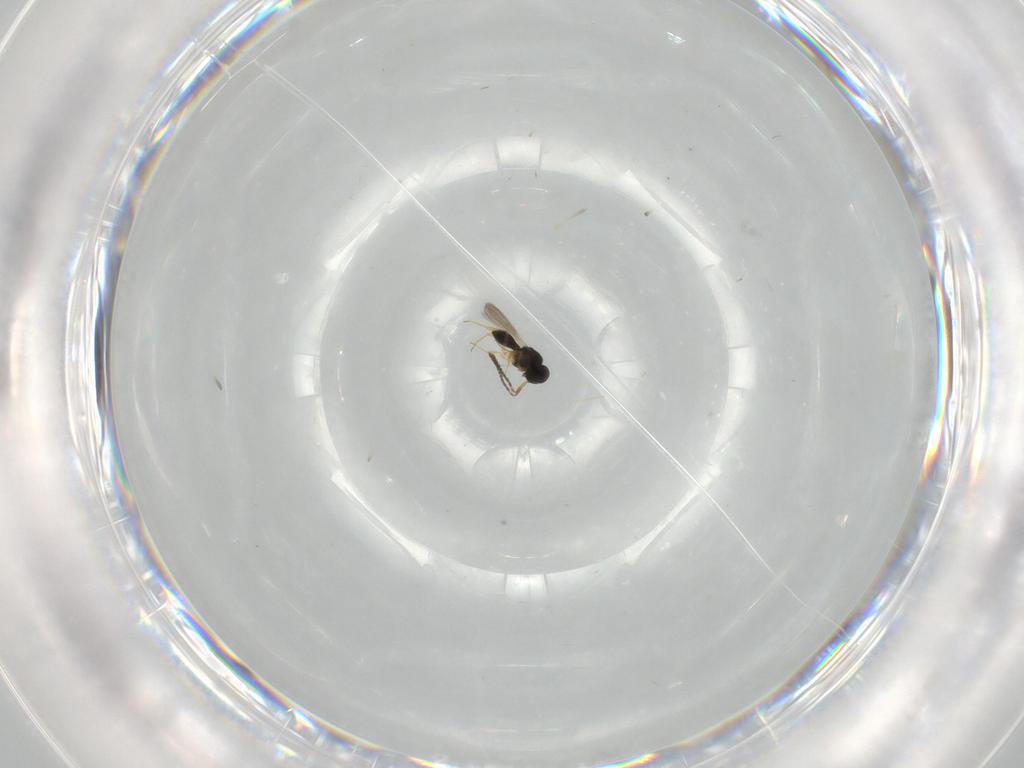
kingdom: Animalia
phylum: Arthropoda
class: Insecta
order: Hymenoptera
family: Scelionidae
